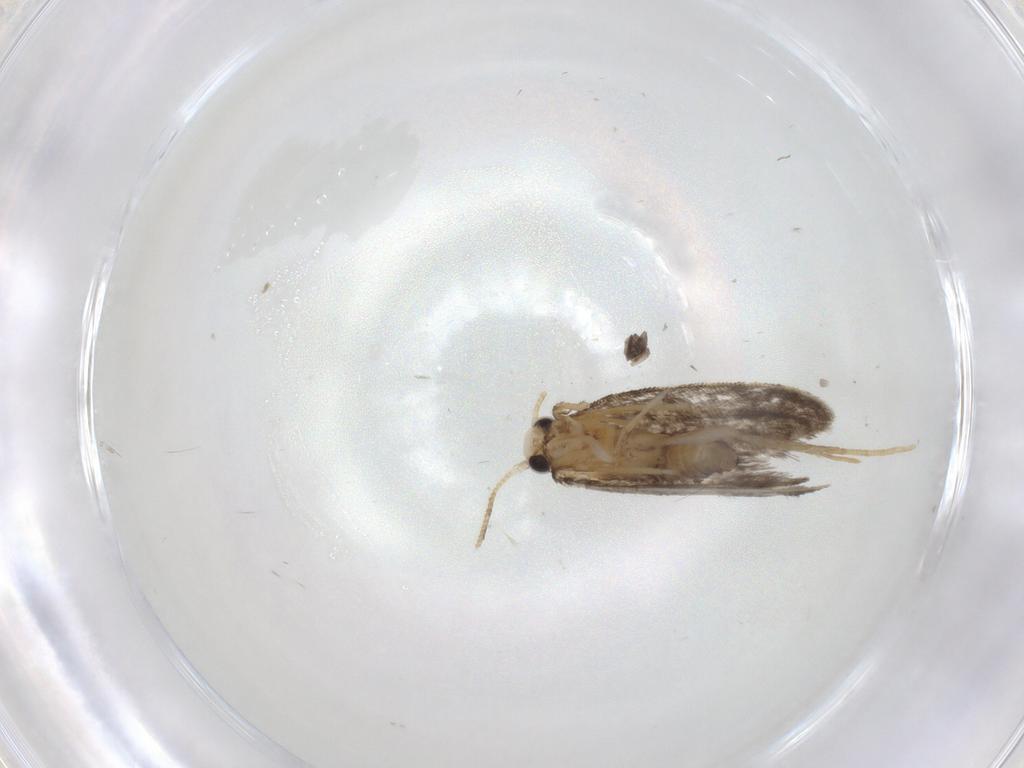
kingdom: Animalia
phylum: Arthropoda
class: Insecta
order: Lepidoptera
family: Psychidae
